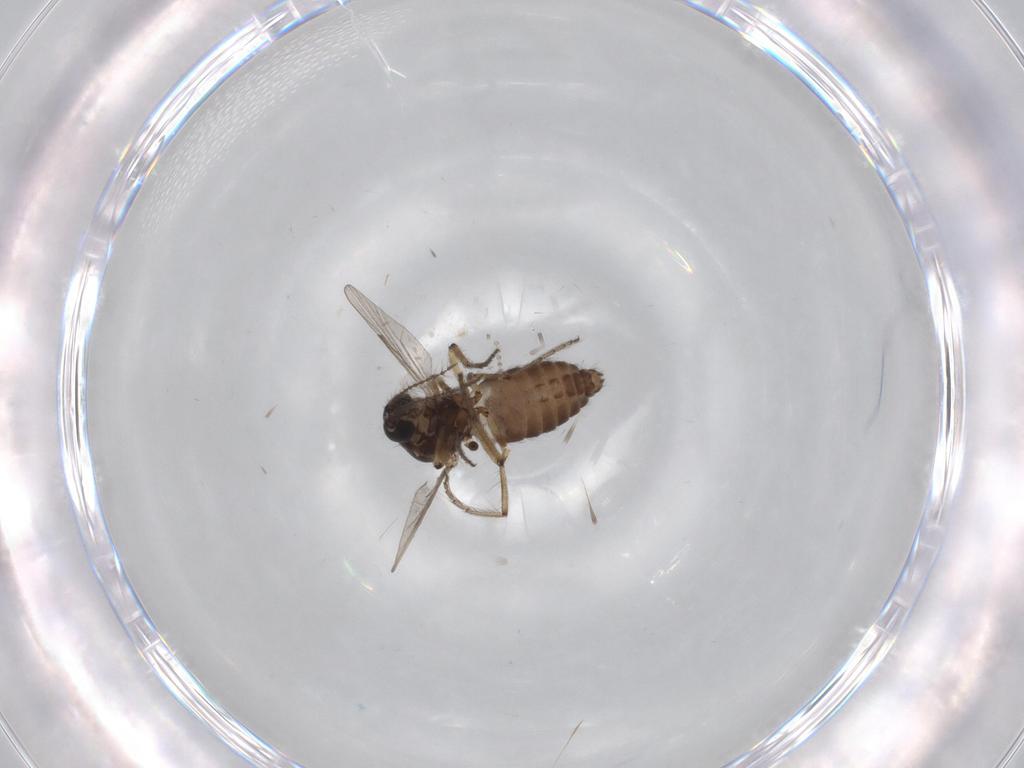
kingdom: Animalia
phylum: Arthropoda
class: Insecta
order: Diptera
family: Ceratopogonidae
